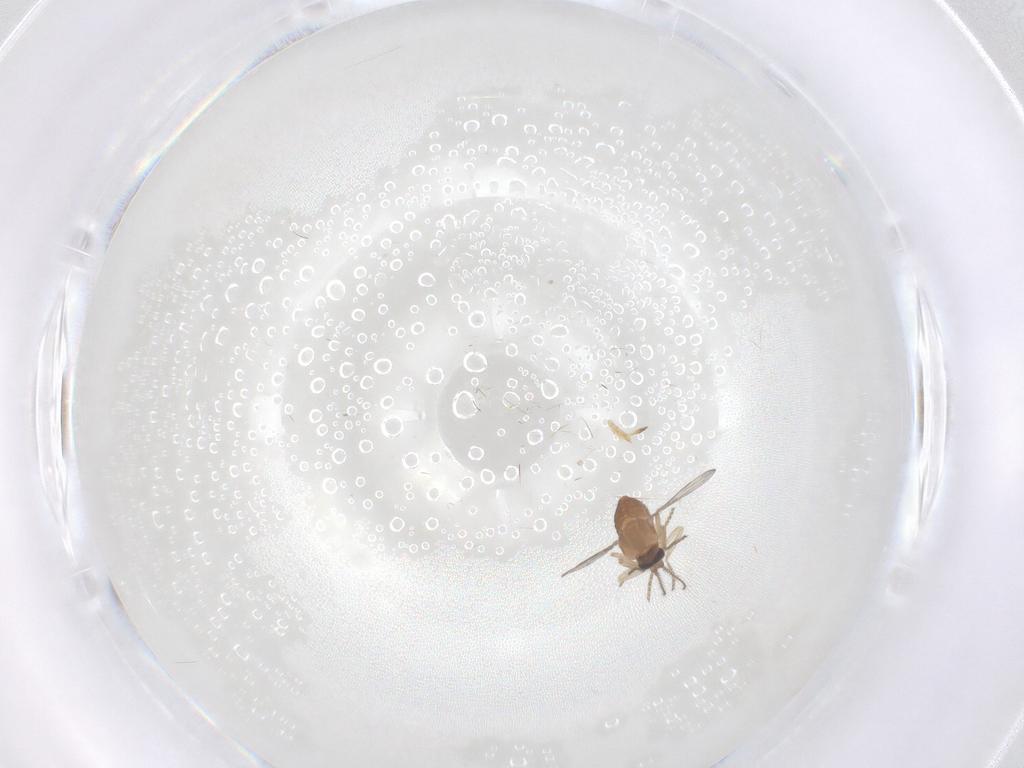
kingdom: Animalia
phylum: Arthropoda
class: Insecta
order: Diptera
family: Ceratopogonidae
